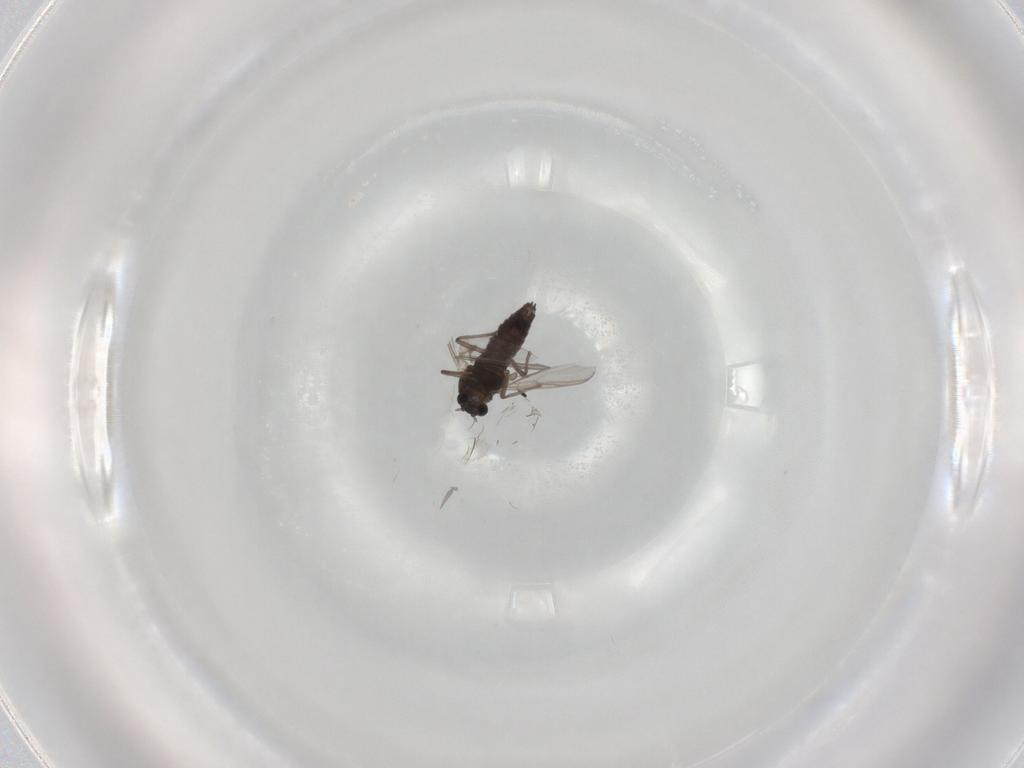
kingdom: Animalia
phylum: Arthropoda
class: Insecta
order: Diptera
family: Chironomidae
